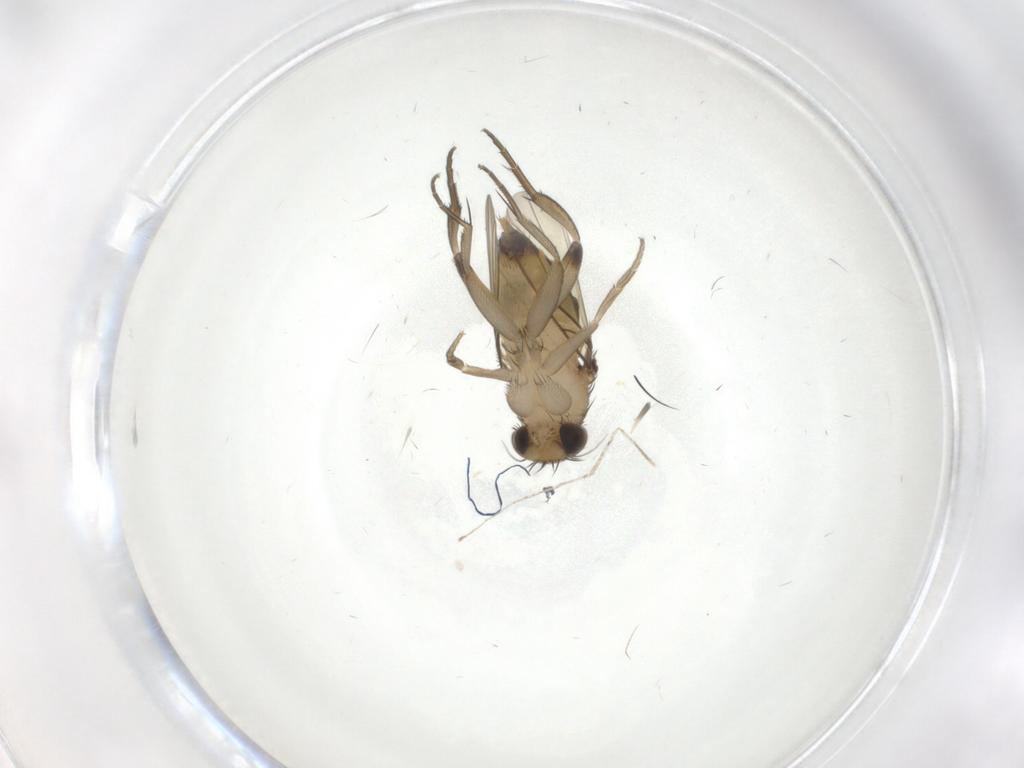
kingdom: Animalia
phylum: Arthropoda
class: Insecta
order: Diptera
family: Phoridae
